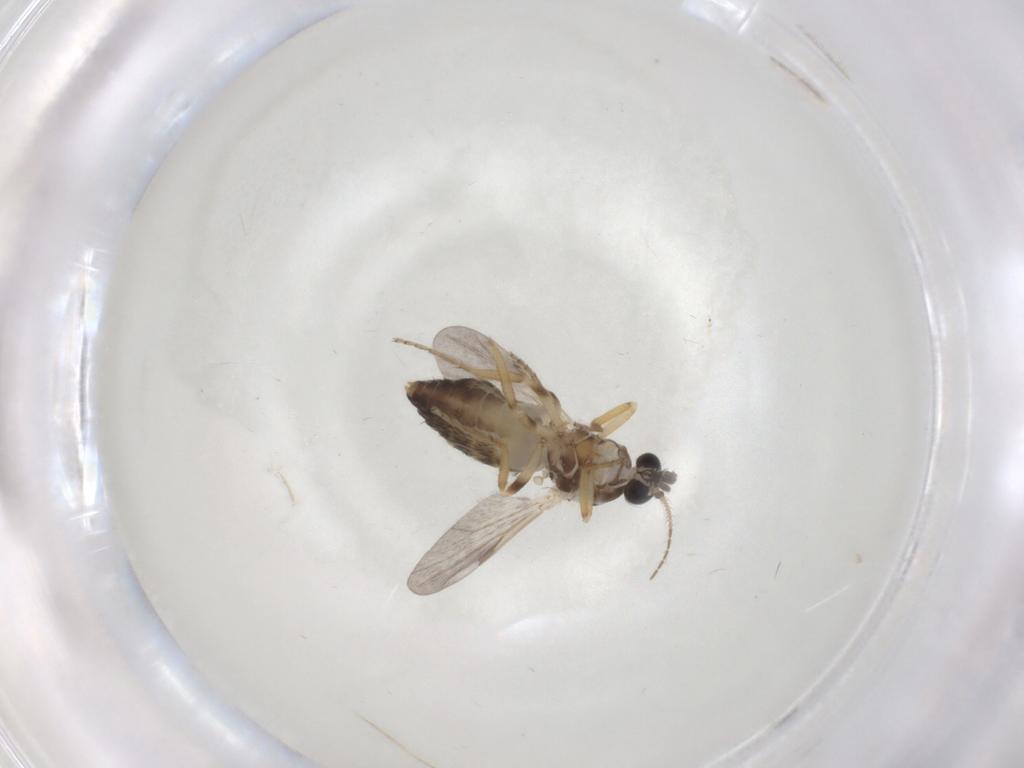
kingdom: Animalia
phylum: Arthropoda
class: Insecta
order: Diptera
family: Ceratopogonidae
